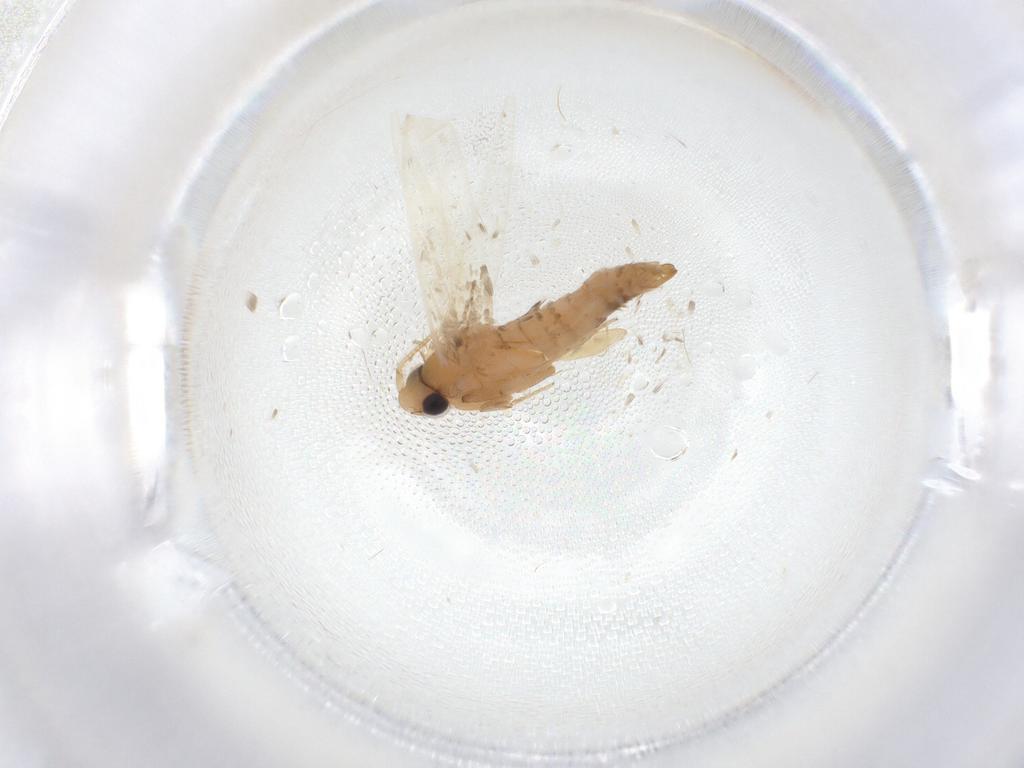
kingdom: Animalia
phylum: Arthropoda
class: Insecta
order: Lepidoptera
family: Tineidae
